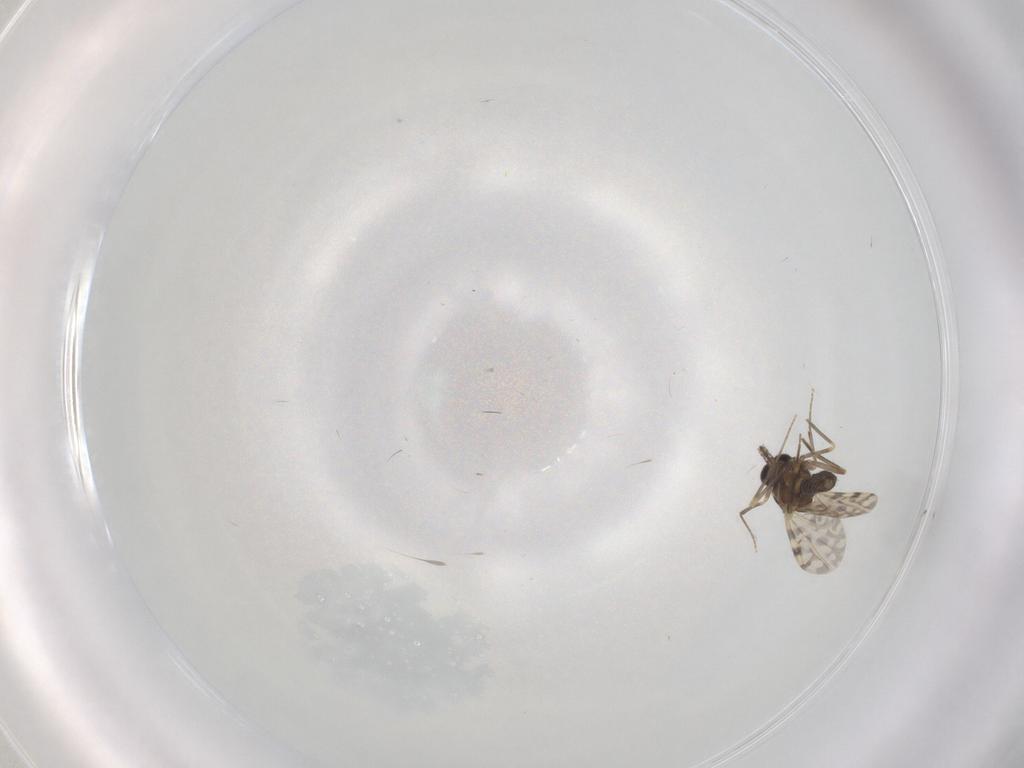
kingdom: Animalia
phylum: Arthropoda
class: Insecta
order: Diptera
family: Ceratopogonidae
